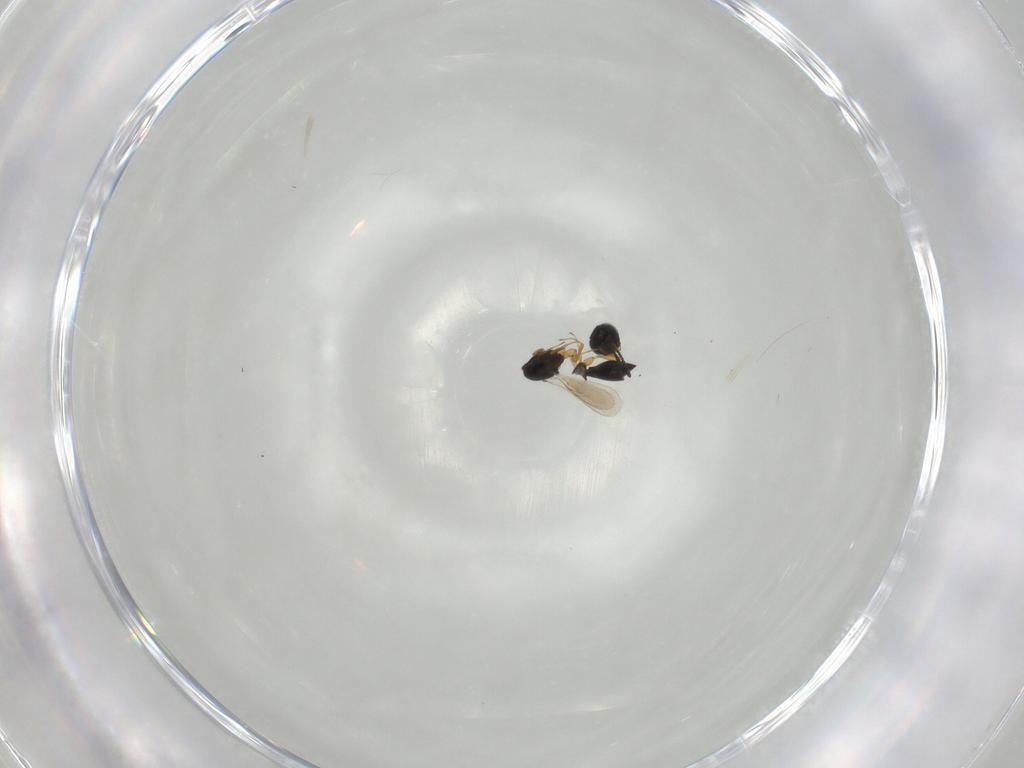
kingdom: Animalia
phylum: Arthropoda
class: Insecta
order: Hymenoptera
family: Scelionidae
